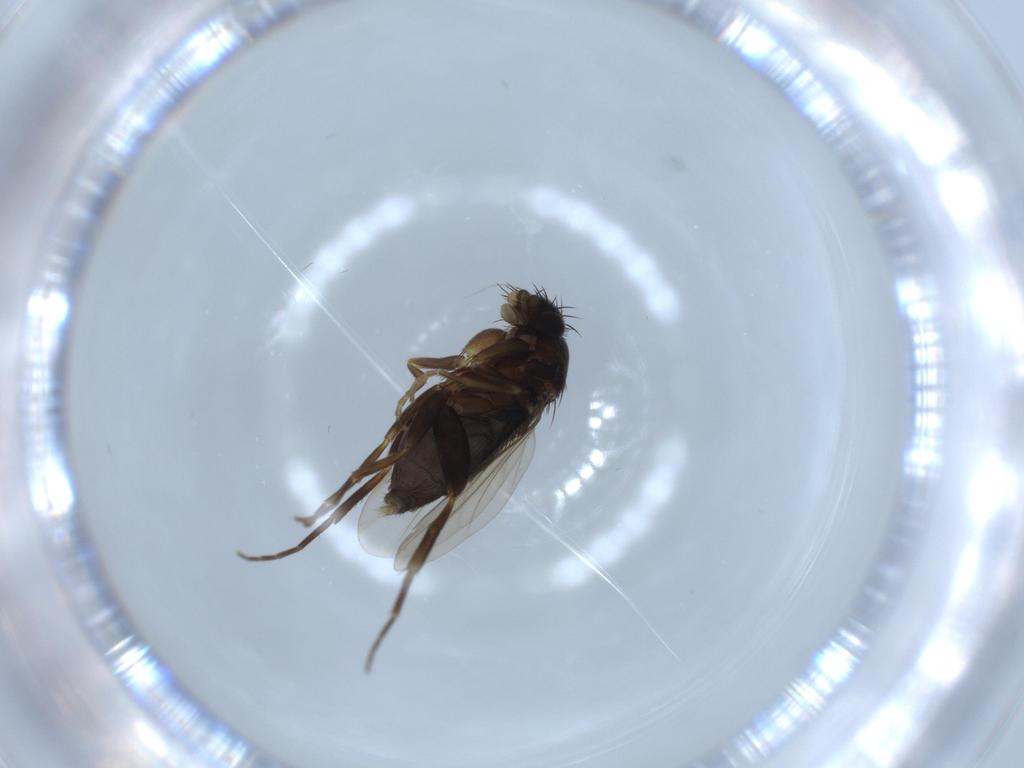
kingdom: Animalia
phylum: Arthropoda
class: Insecta
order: Diptera
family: Phoridae
